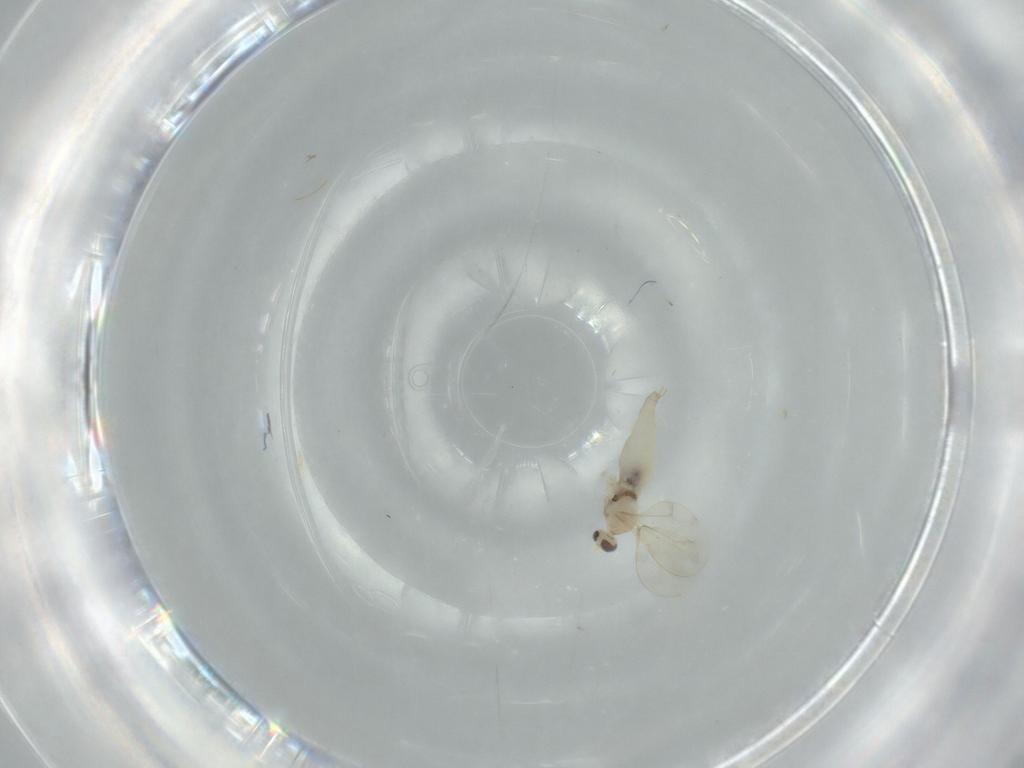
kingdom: Animalia
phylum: Arthropoda
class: Insecta
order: Diptera
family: Cecidomyiidae
